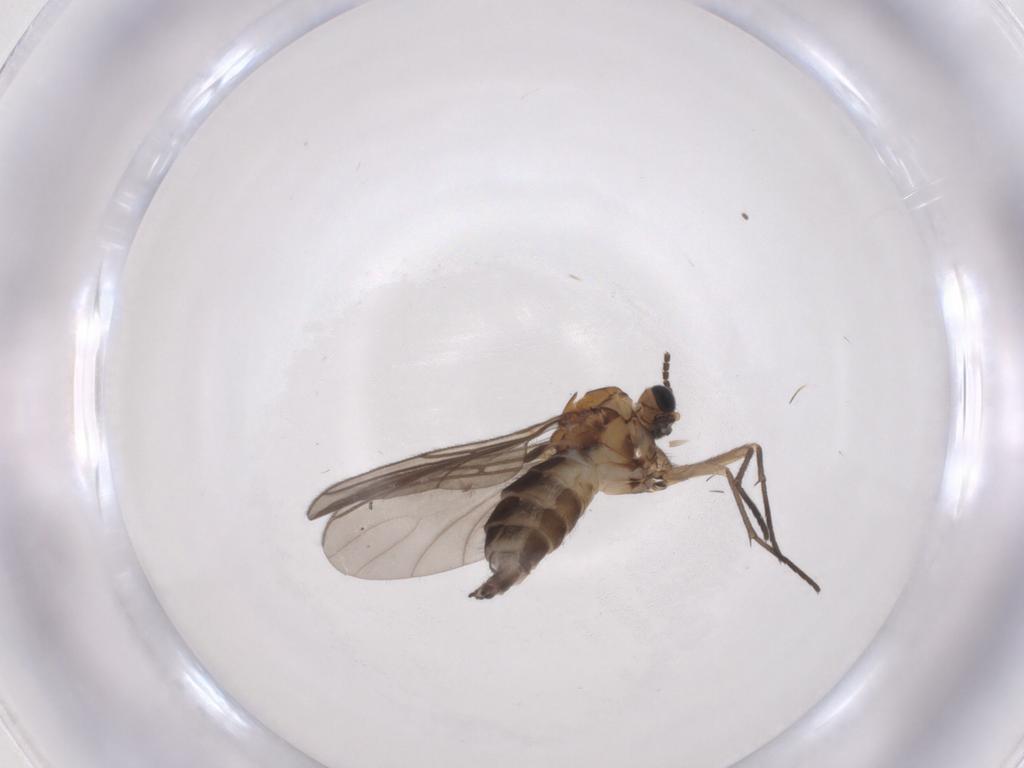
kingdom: Animalia
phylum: Arthropoda
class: Insecta
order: Diptera
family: Sciaridae
